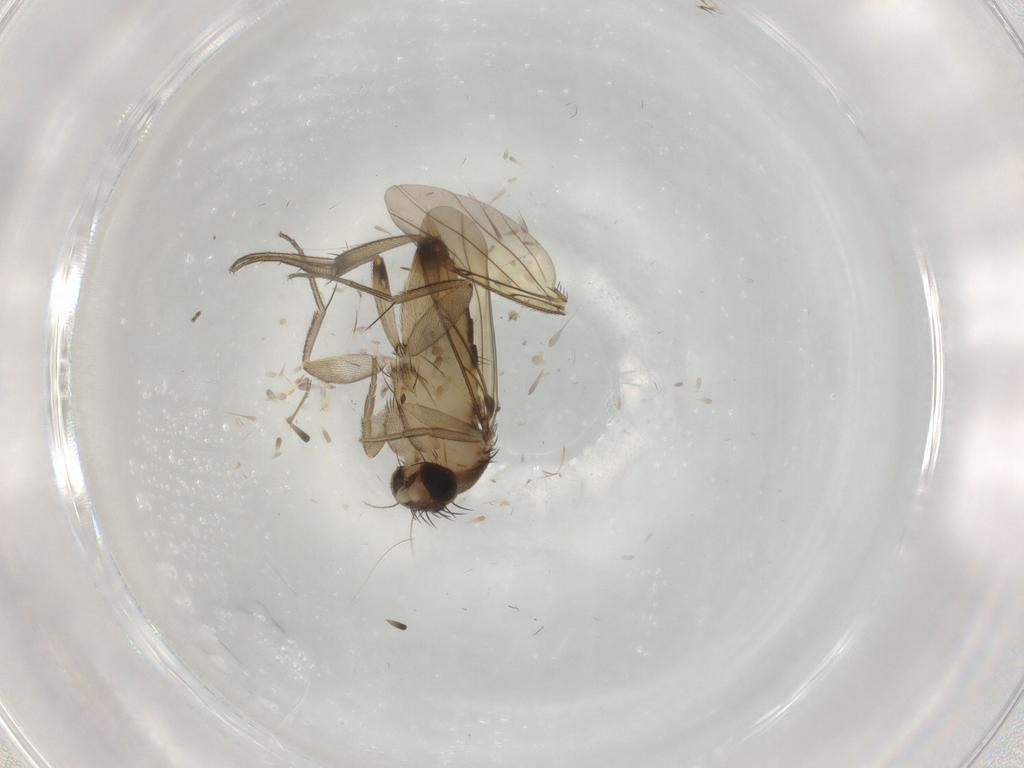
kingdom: Animalia
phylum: Arthropoda
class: Insecta
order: Diptera
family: Phoridae
